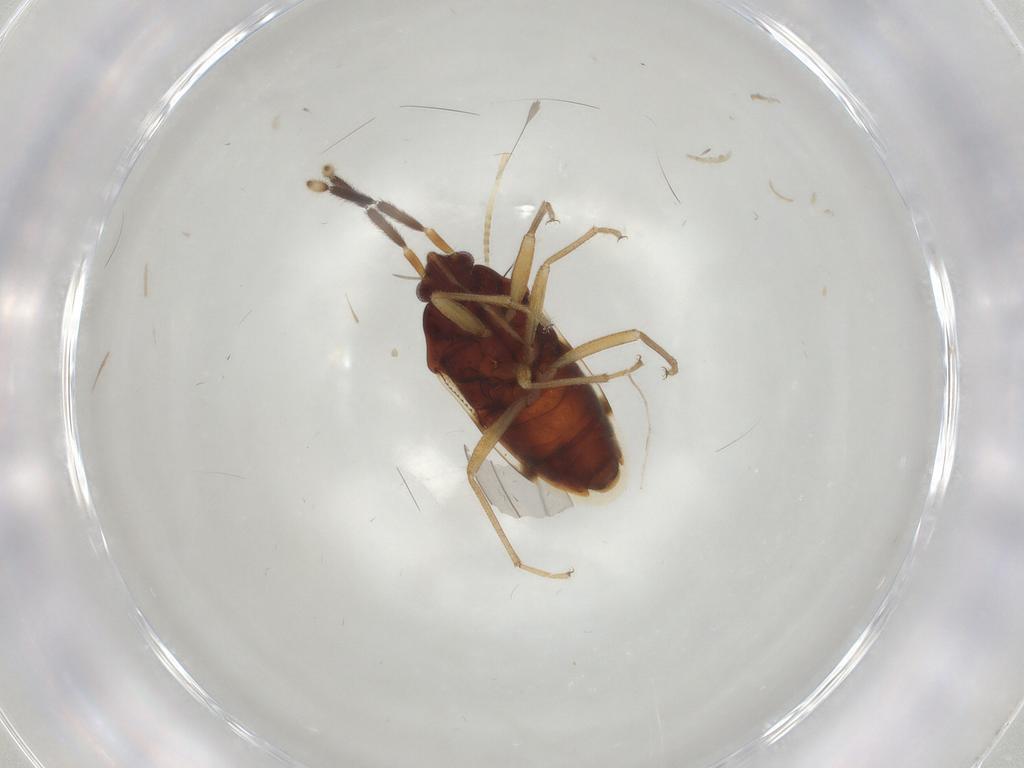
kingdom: Animalia
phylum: Arthropoda
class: Insecta
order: Hemiptera
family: Rhyparochromidae
